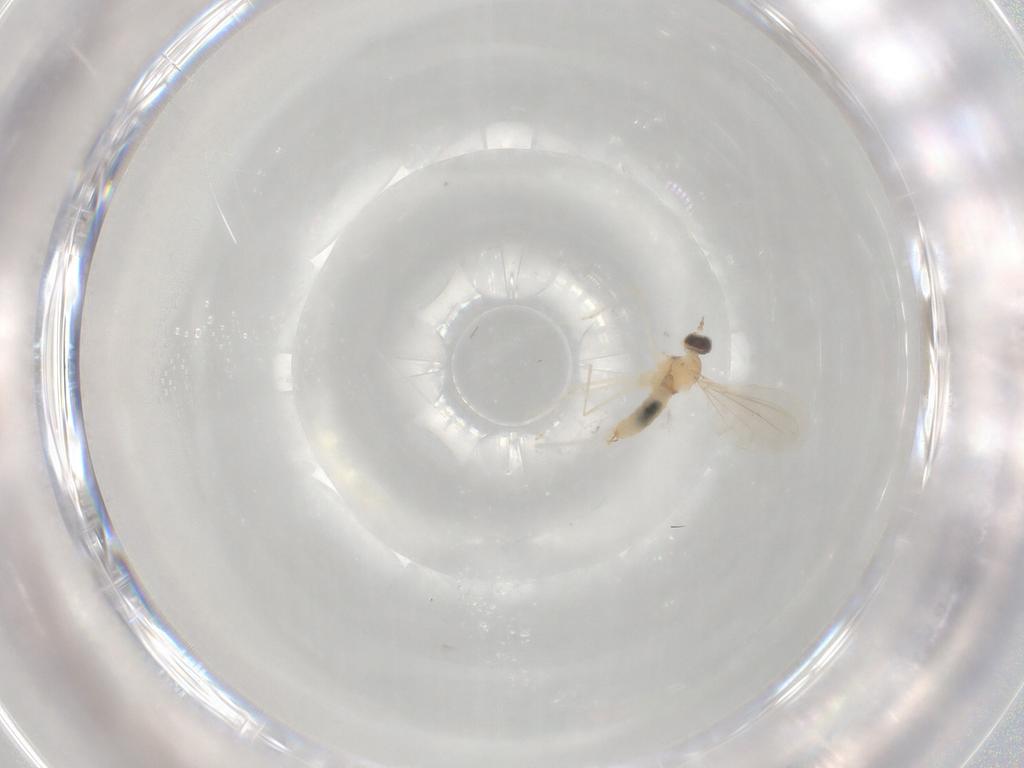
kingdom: Animalia
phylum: Arthropoda
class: Insecta
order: Diptera
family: Cecidomyiidae
